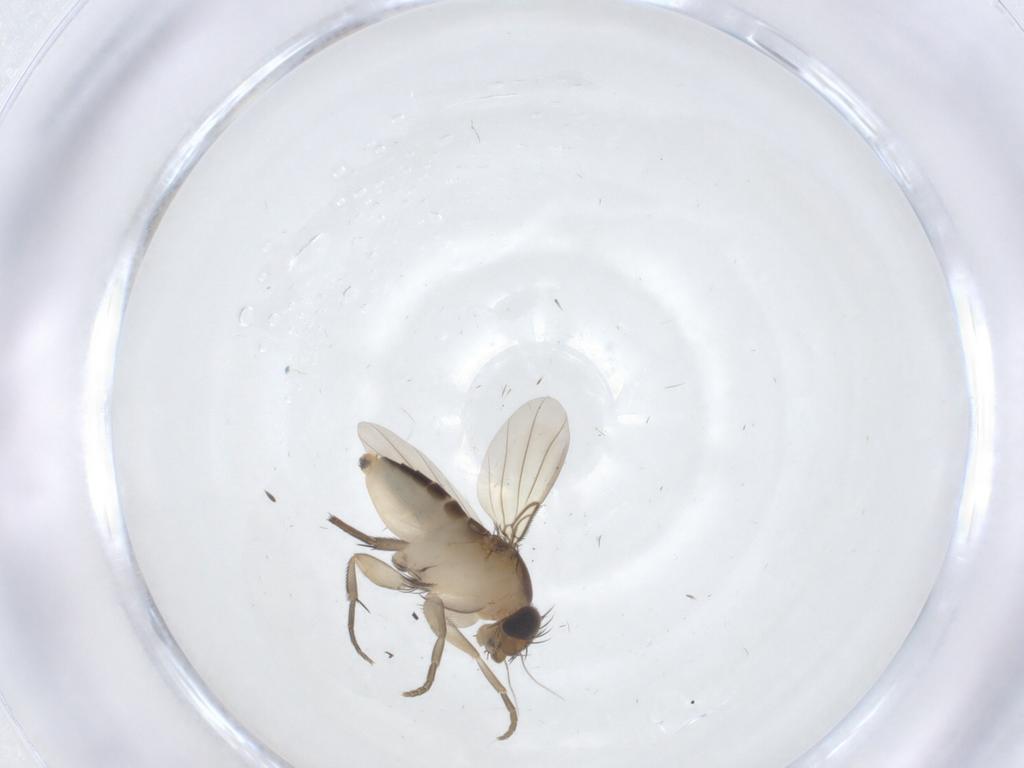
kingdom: Animalia
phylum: Arthropoda
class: Insecta
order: Diptera
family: Phoridae
